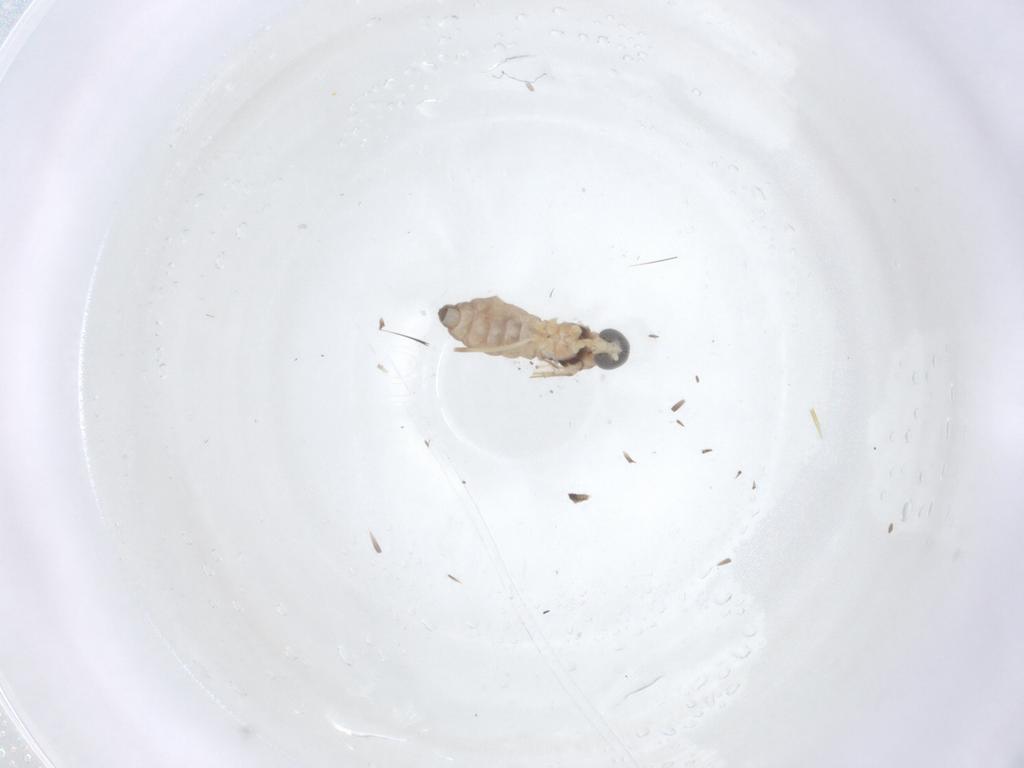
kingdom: Animalia
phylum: Arthropoda
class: Insecta
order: Diptera
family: Cecidomyiidae
